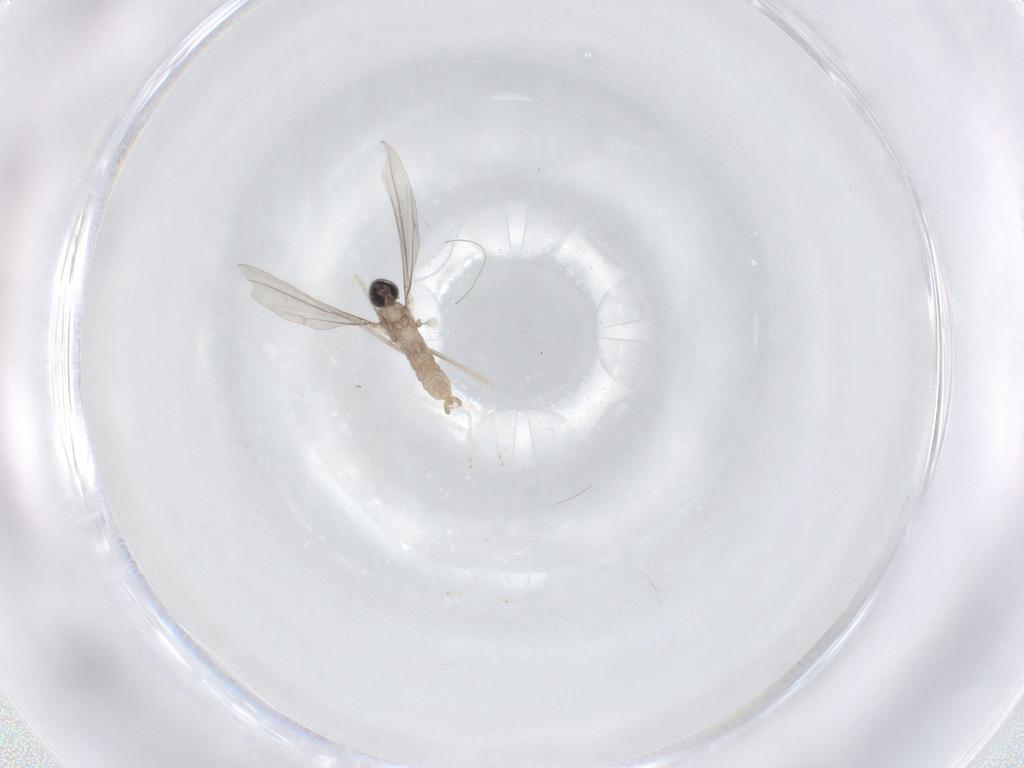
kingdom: Animalia
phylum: Arthropoda
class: Insecta
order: Diptera
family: Cecidomyiidae
